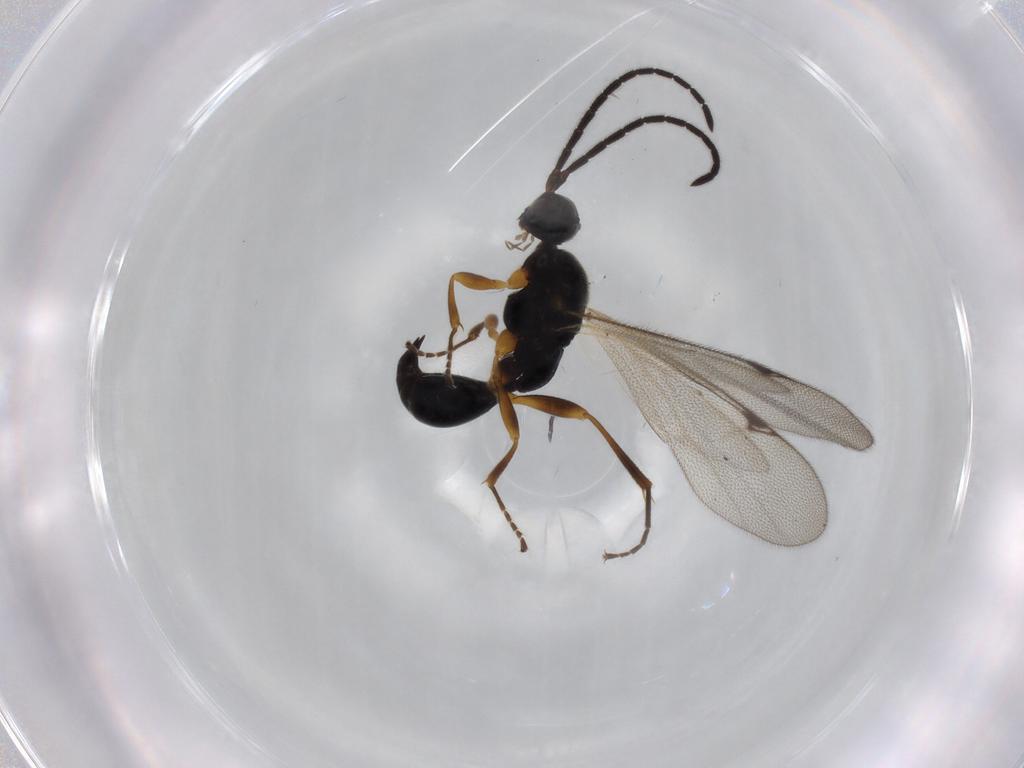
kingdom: Animalia
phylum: Arthropoda
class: Insecta
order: Hymenoptera
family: Proctotrupidae
